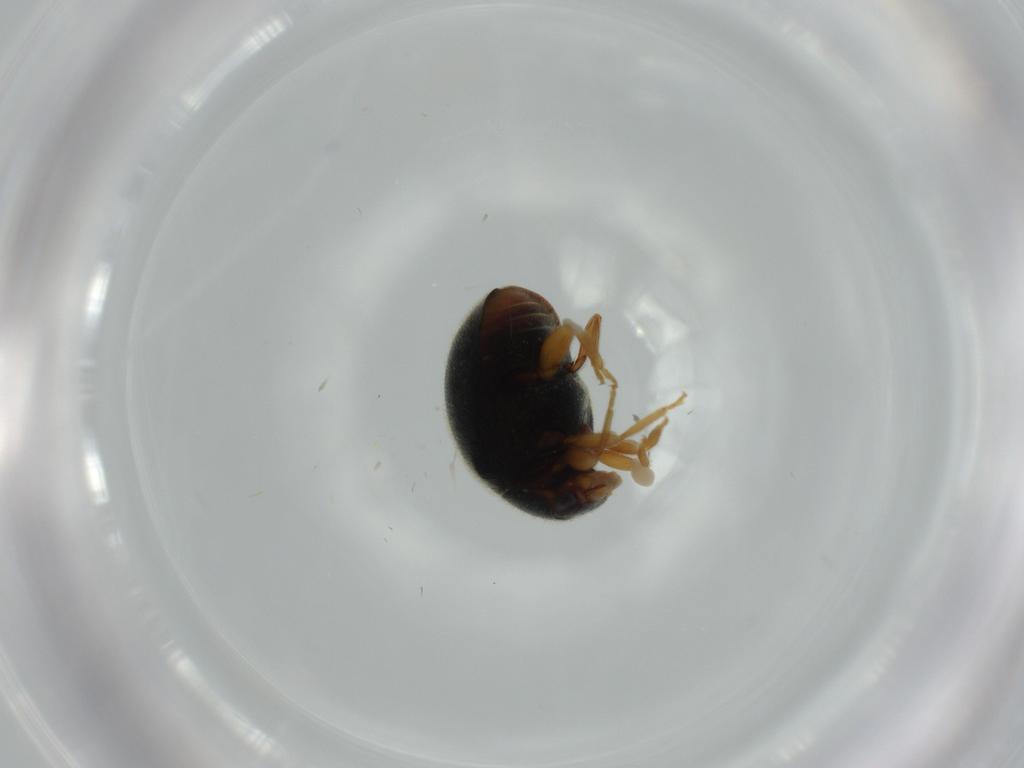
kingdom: Animalia
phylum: Arthropoda
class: Insecta
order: Coleoptera
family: Coccinellidae
